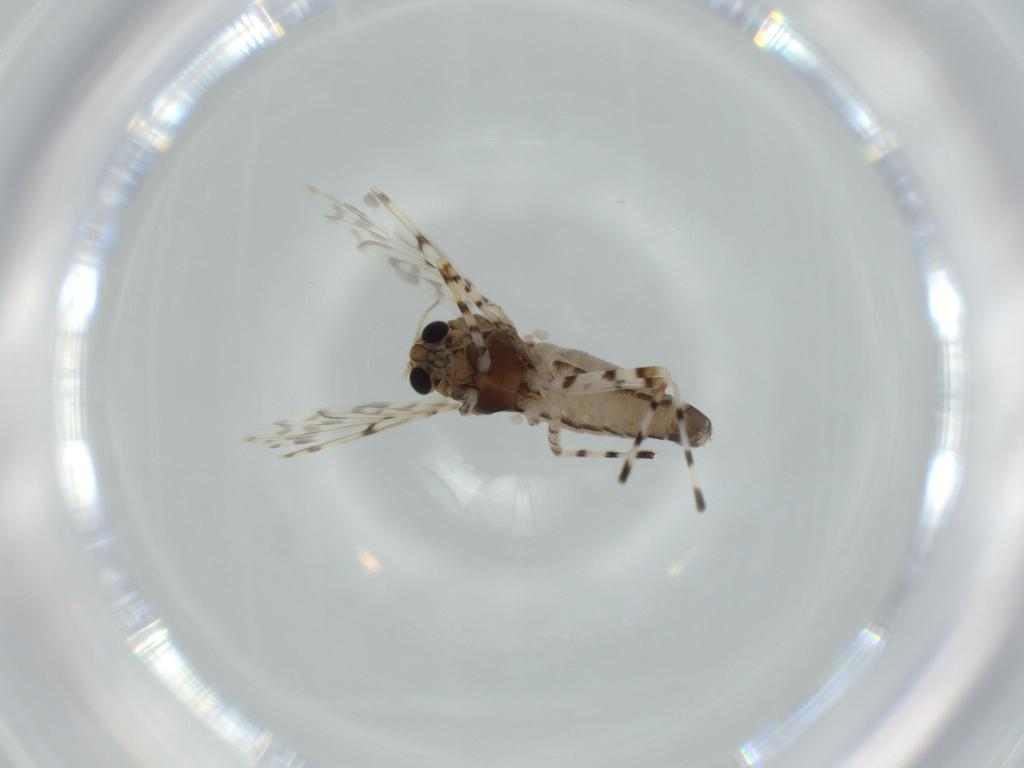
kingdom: Animalia
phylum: Arthropoda
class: Insecta
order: Diptera
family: Chironomidae
